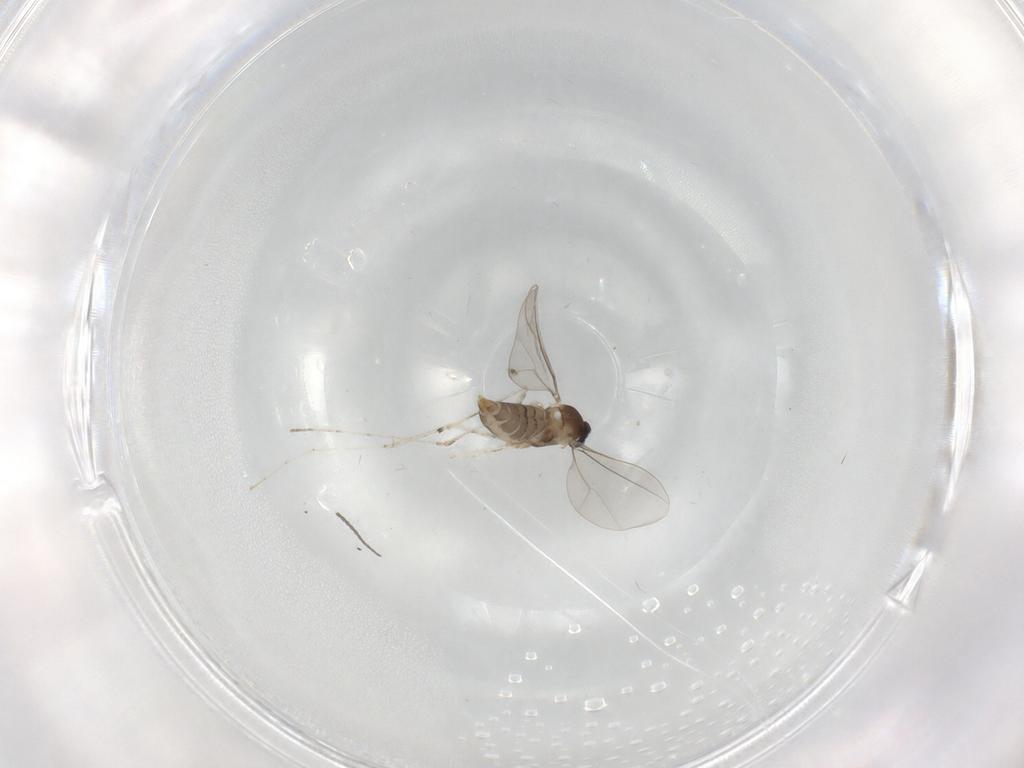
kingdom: Animalia
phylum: Arthropoda
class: Insecta
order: Diptera
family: Cecidomyiidae
